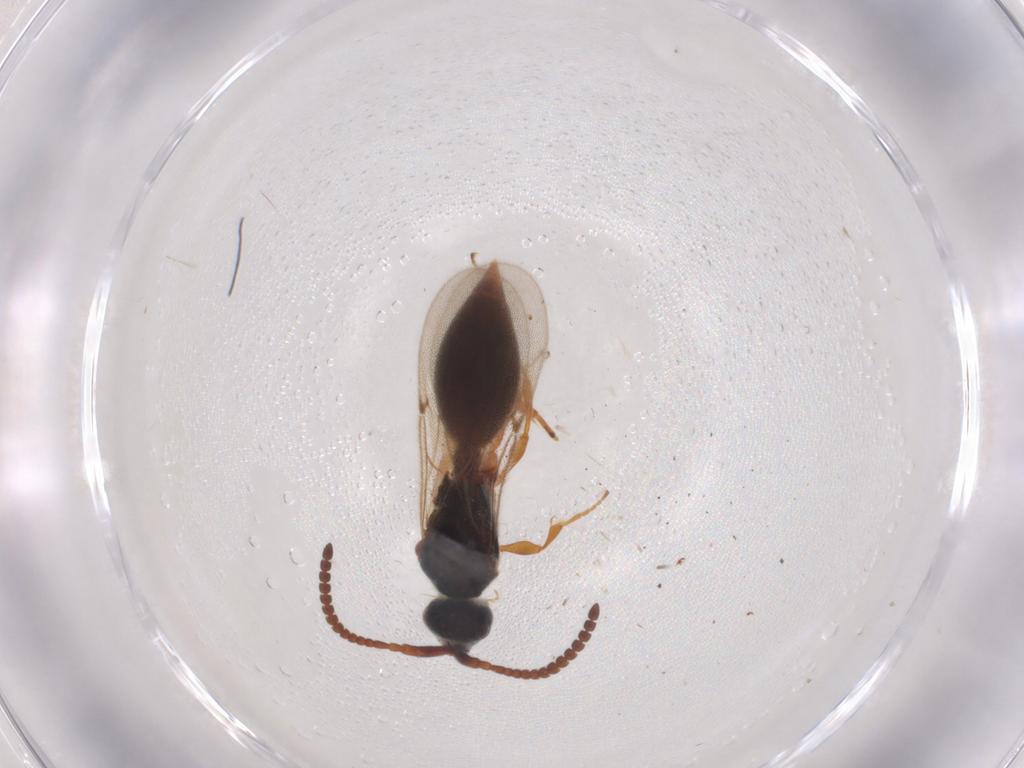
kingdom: Animalia
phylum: Arthropoda
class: Insecta
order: Hymenoptera
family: Diapriidae
